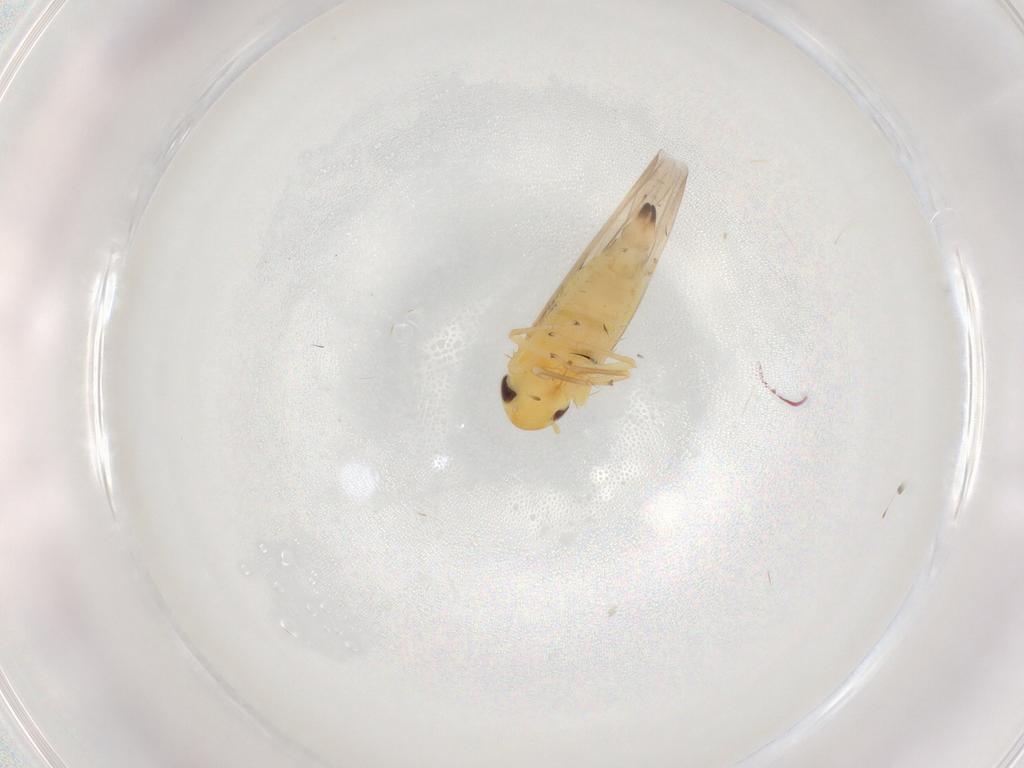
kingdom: Animalia
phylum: Arthropoda
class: Insecta
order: Hemiptera
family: Cicadellidae
